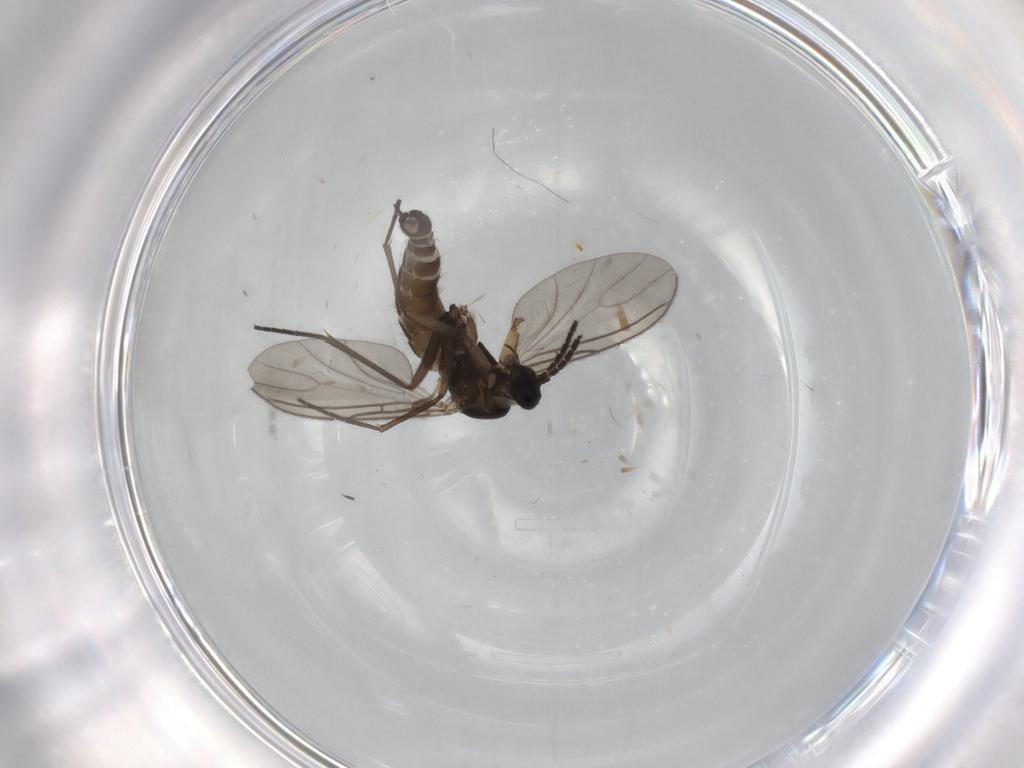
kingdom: Animalia
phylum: Arthropoda
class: Insecta
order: Diptera
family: Sciaridae
